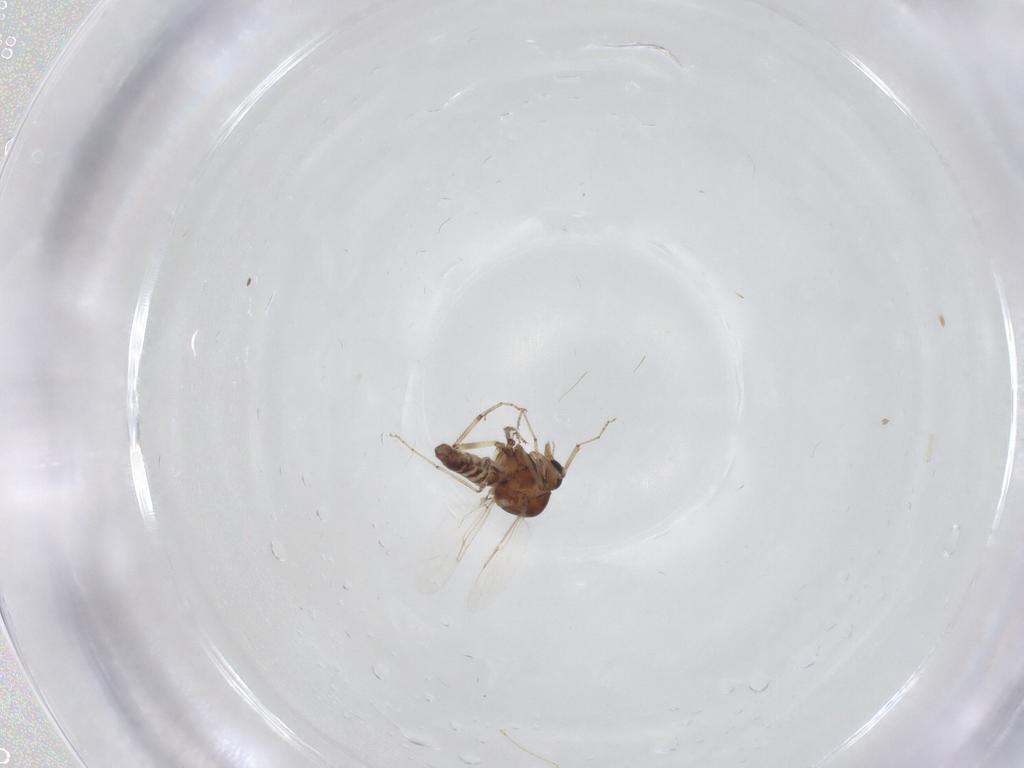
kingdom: Animalia
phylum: Arthropoda
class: Insecta
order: Diptera
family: Ceratopogonidae
